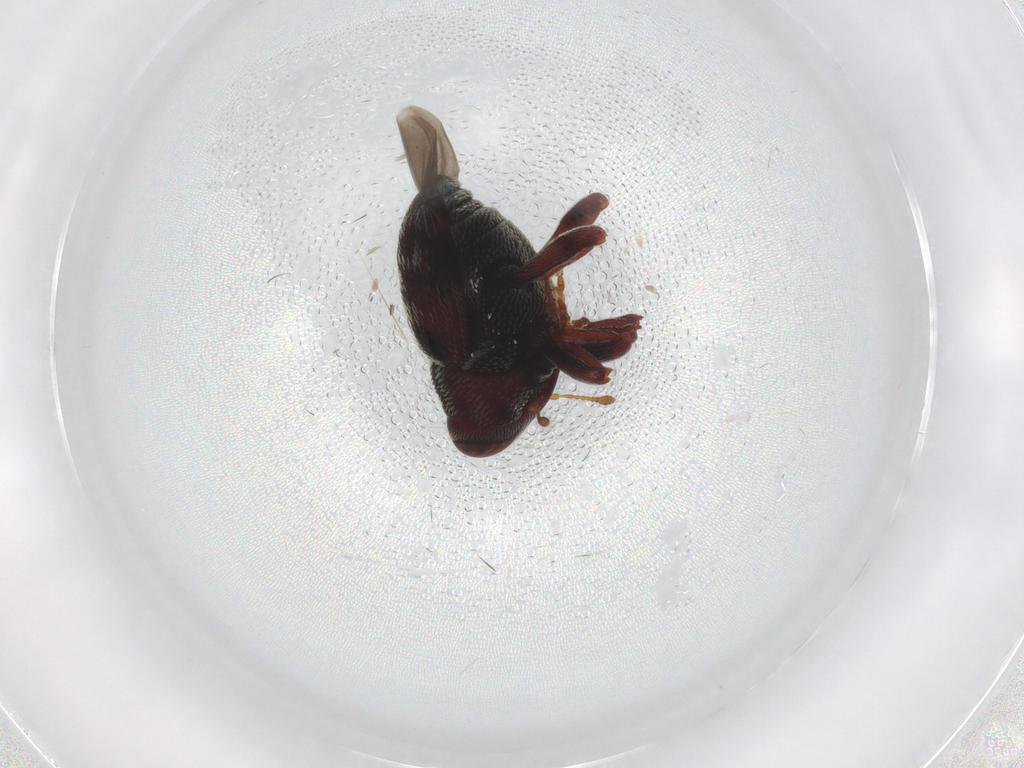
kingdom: Animalia
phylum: Arthropoda
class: Insecta
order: Coleoptera
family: Curculionidae
